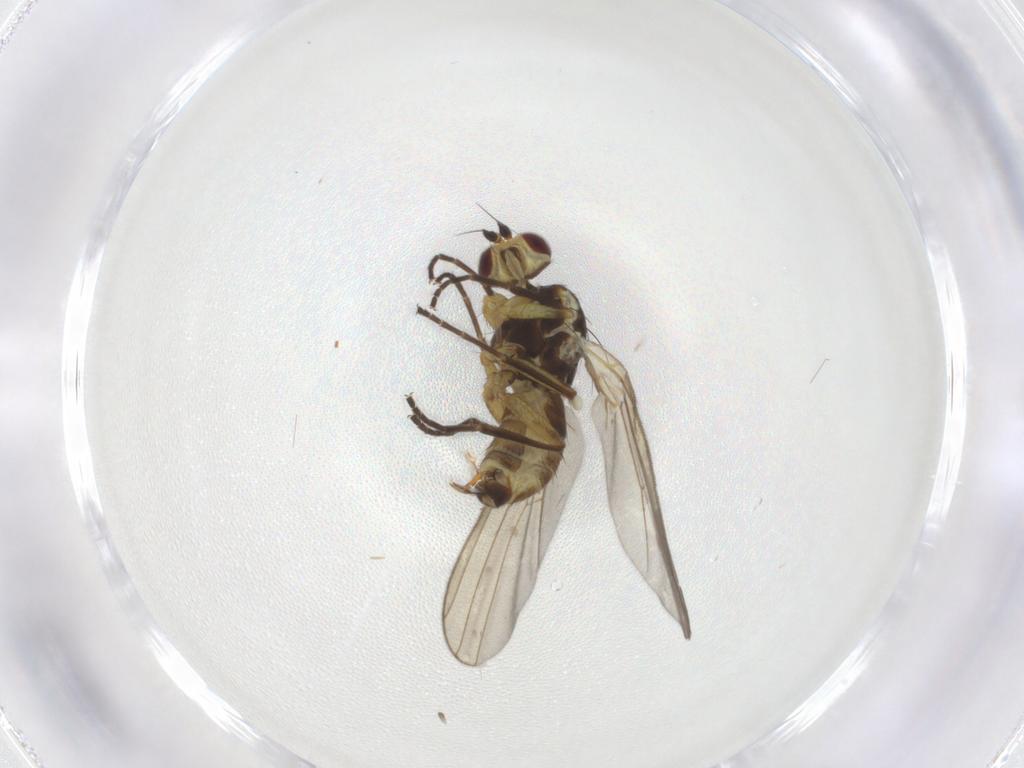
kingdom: Animalia
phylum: Arthropoda
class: Insecta
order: Diptera
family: Agromyzidae
